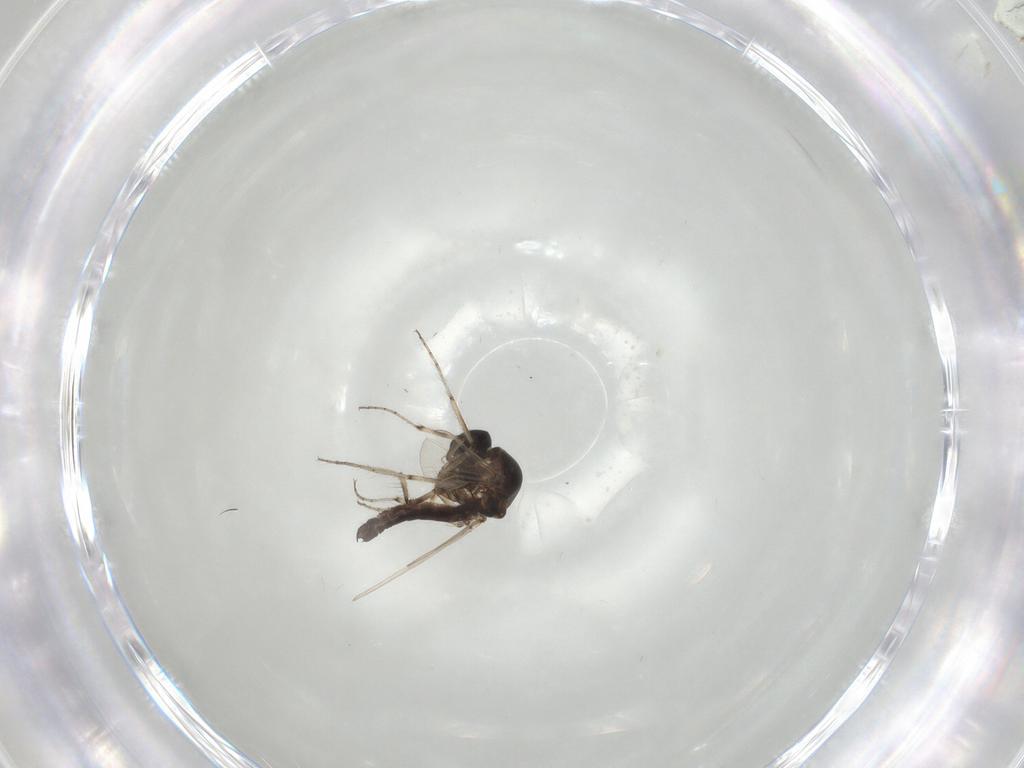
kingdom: Animalia
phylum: Arthropoda
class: Insecta
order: Diptera
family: Ceratopogonidae
